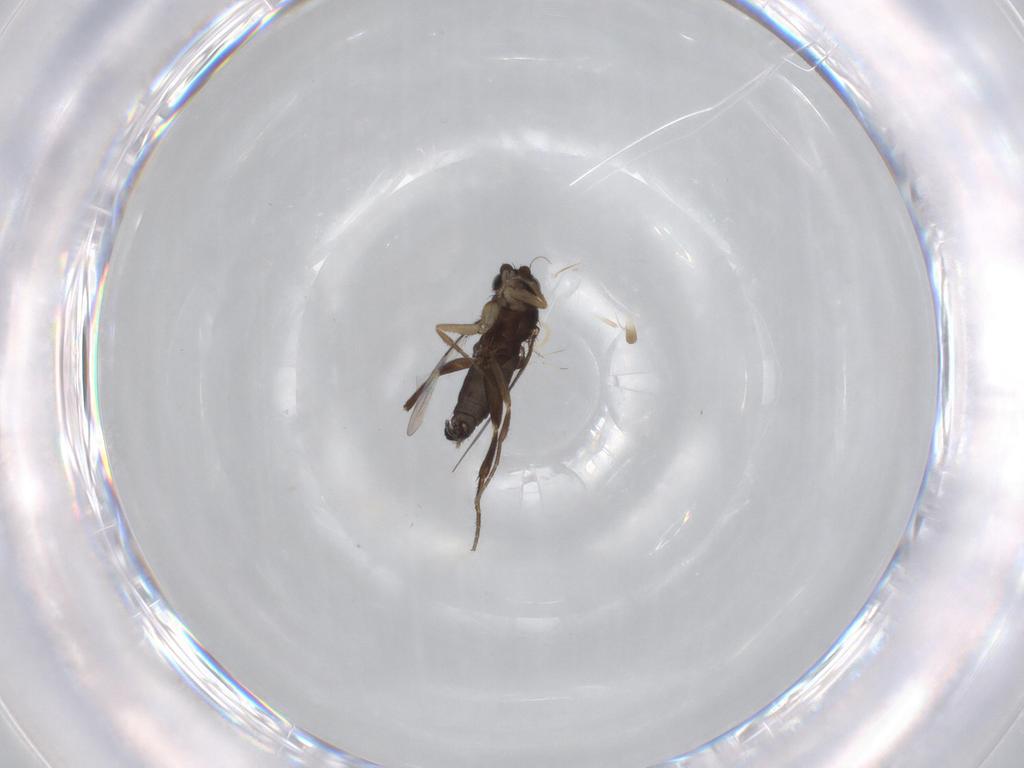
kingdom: Animalia
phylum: Arthropoda
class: Insecta
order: Diptera
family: Phoridae
